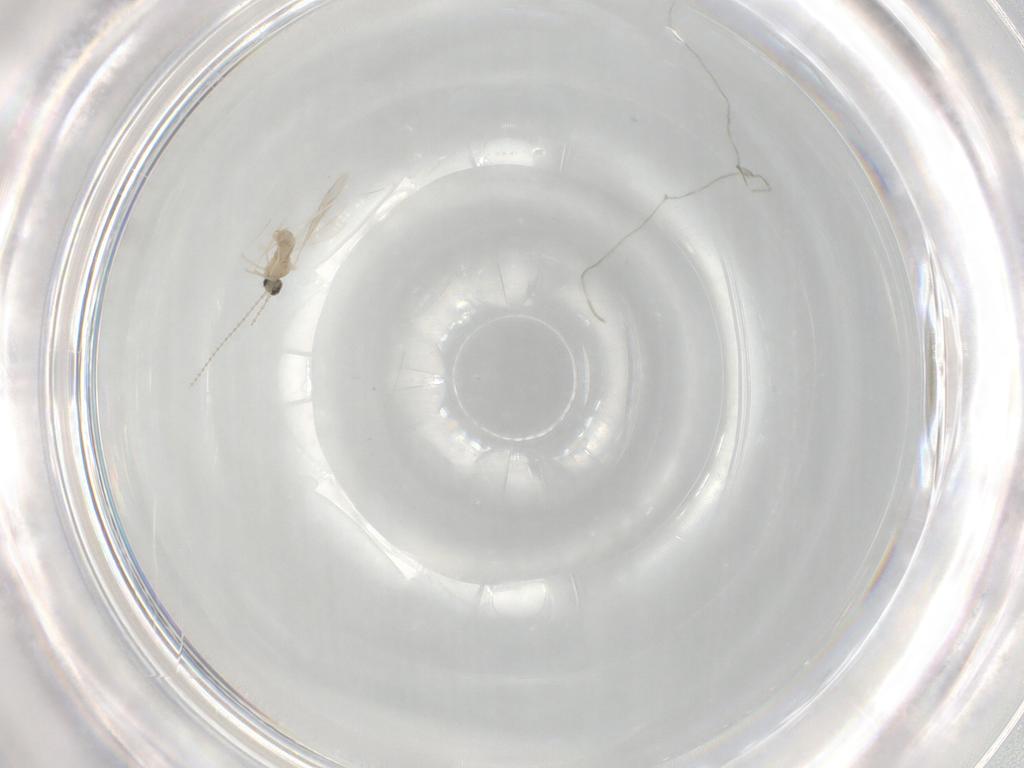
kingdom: Animalia
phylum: Arthropoda
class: Insecta
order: Diptera
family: Cecidomyiidae
